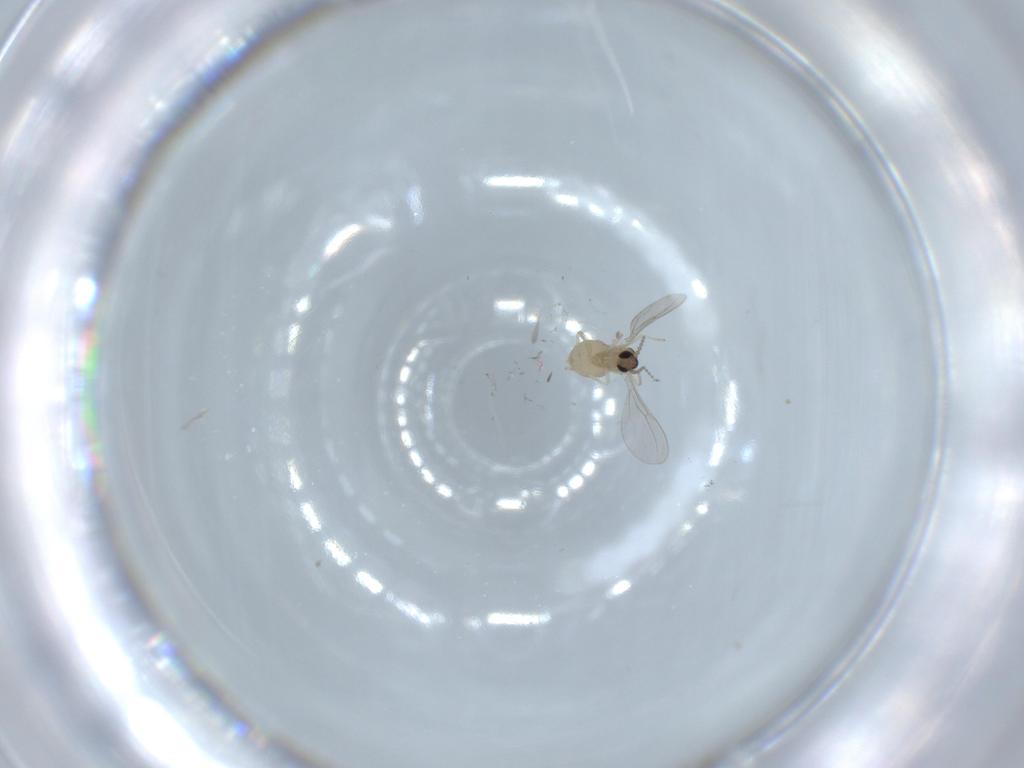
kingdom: Animalia
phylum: Arthropoda
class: Insecta
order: Diptera
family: Cecidomyiidae
